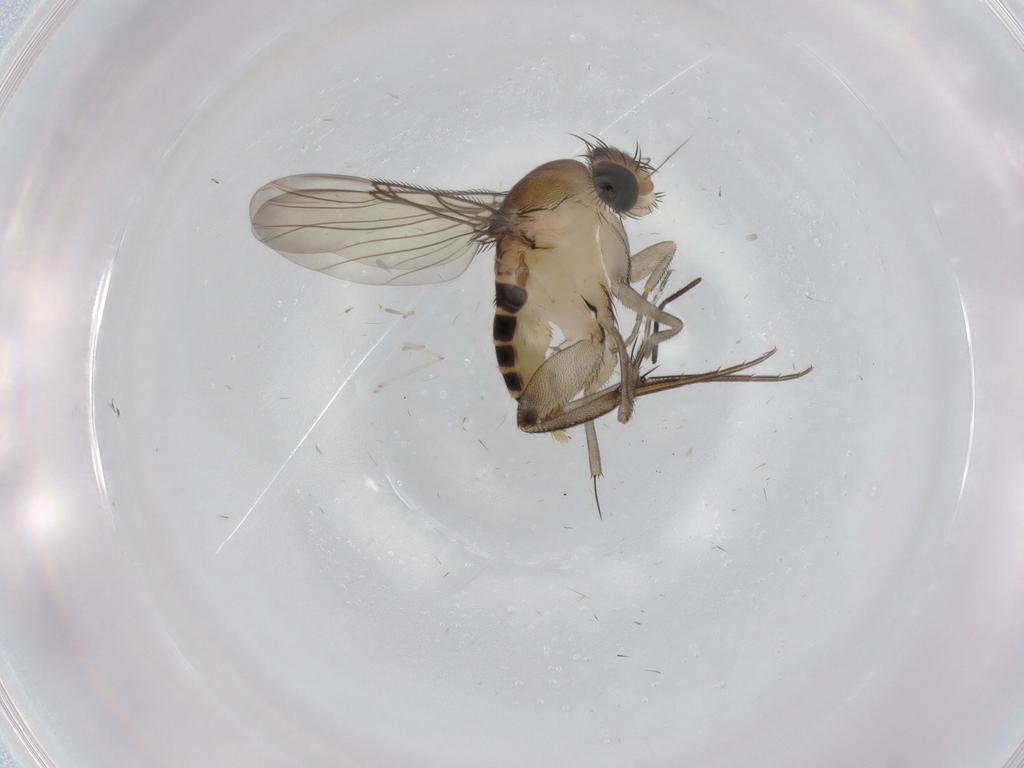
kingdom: Animalia
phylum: Arthropoda
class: Insecta
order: Diptera
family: Phoridae
